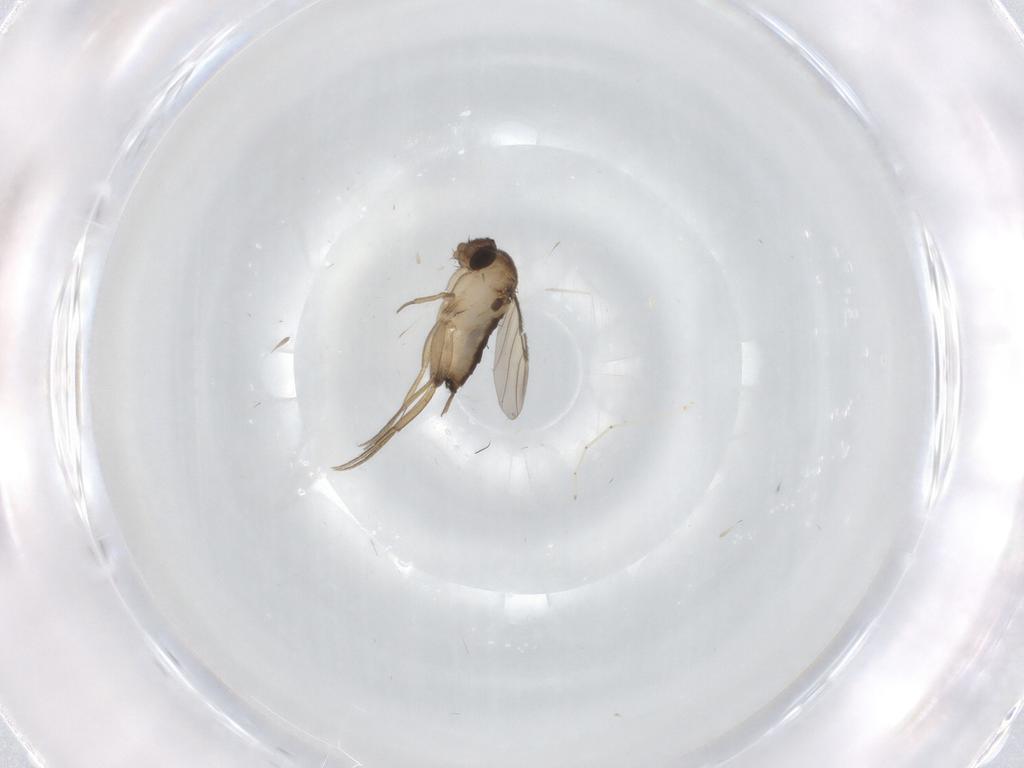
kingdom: Animalia
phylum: Arthropoda
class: Insecta
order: Diptera
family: Phoridae
